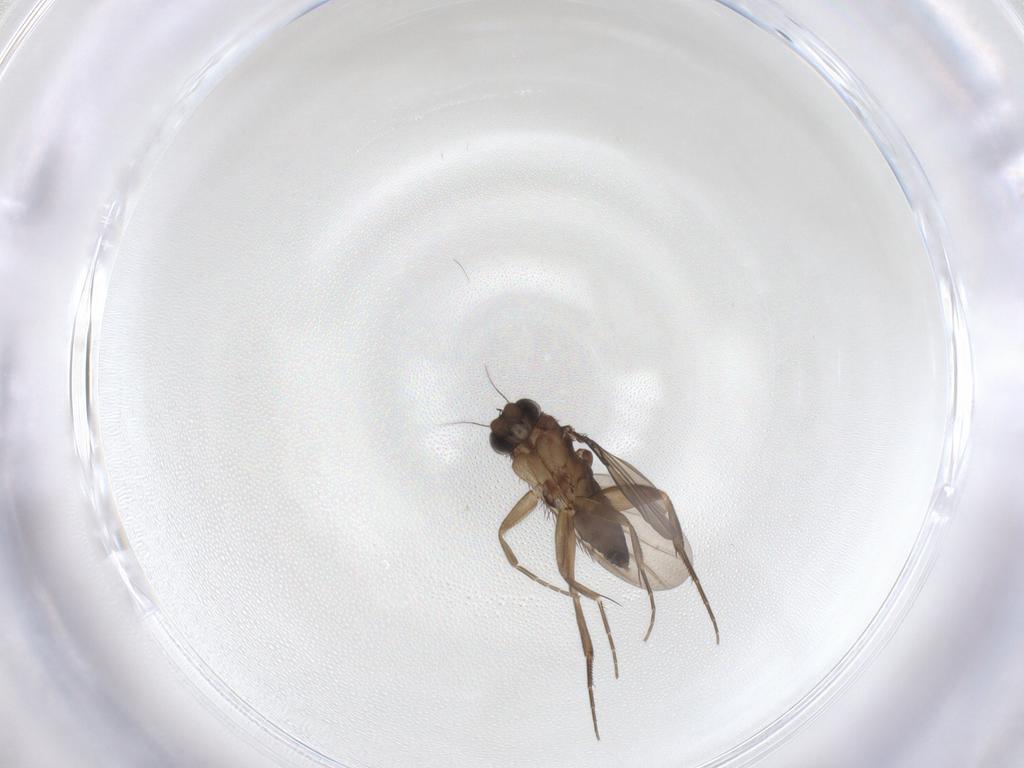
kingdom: Animalia
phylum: Arthropoda
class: Insecta
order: Diptera
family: Phoridae
